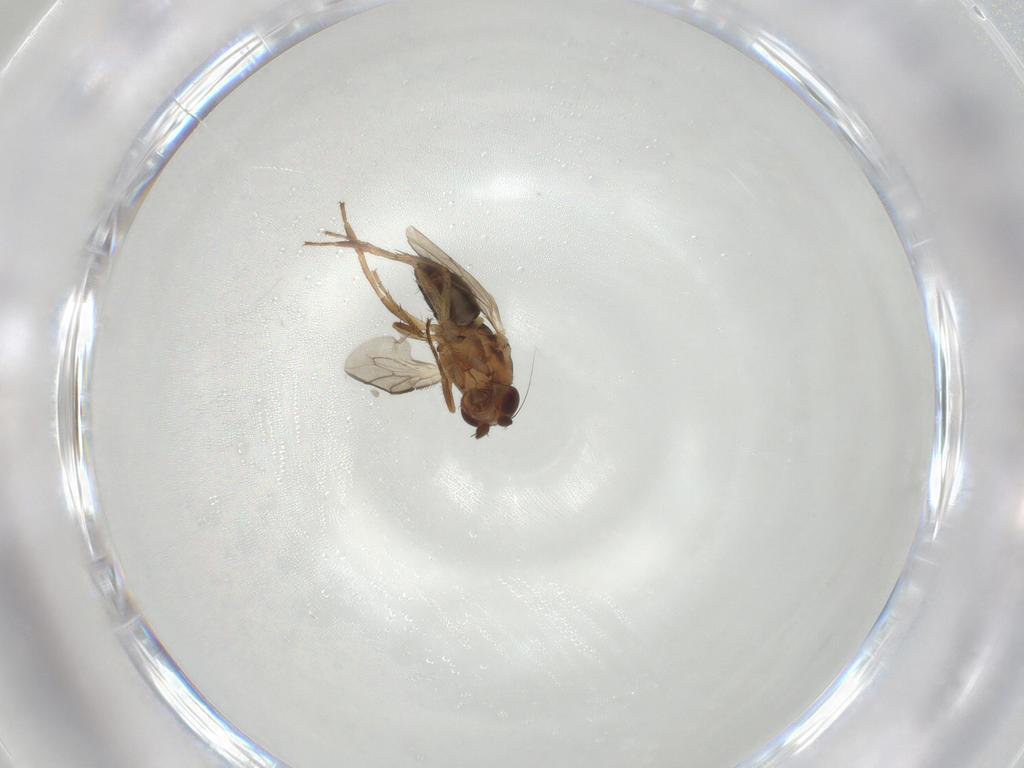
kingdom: Animalia
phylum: Arthropoda
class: Insecta
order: Diptera
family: Sphaeroceridae
